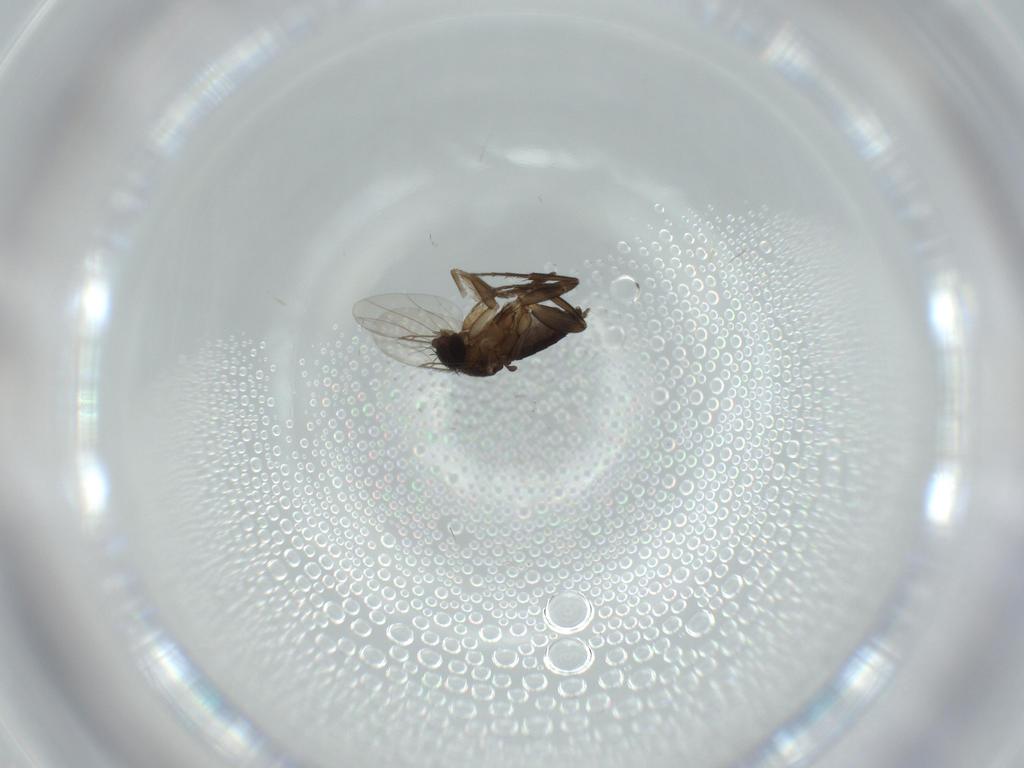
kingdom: Animalia
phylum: Arthropoda
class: Insecta
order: Diptera
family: Phoridae
